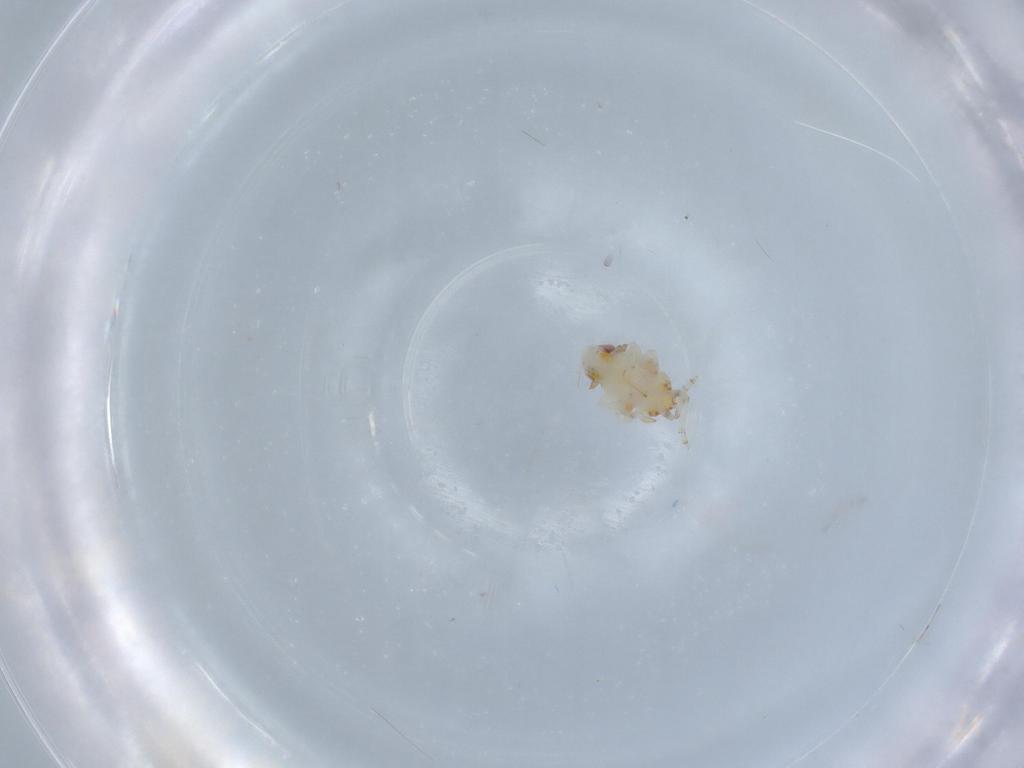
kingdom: Animalia
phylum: Arthropoda
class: Insecta
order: Hemiptera
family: Nogodinidae
